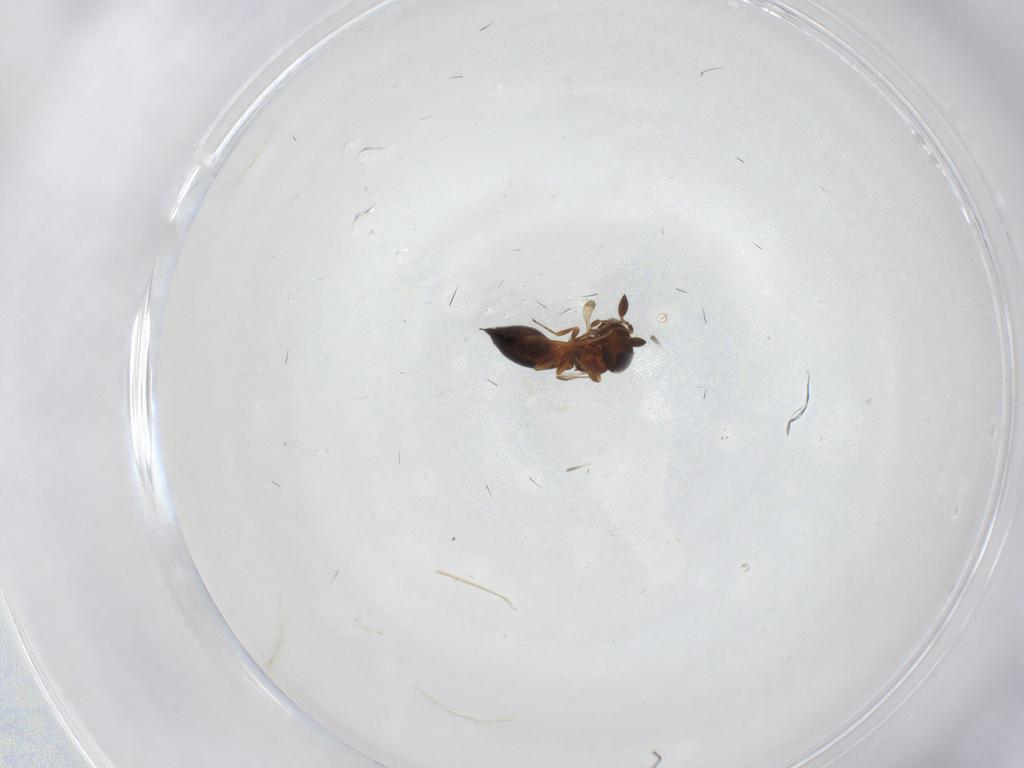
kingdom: Animalia
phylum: Arthropoda
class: Insecta
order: Hymenoptera
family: Scelionidae
